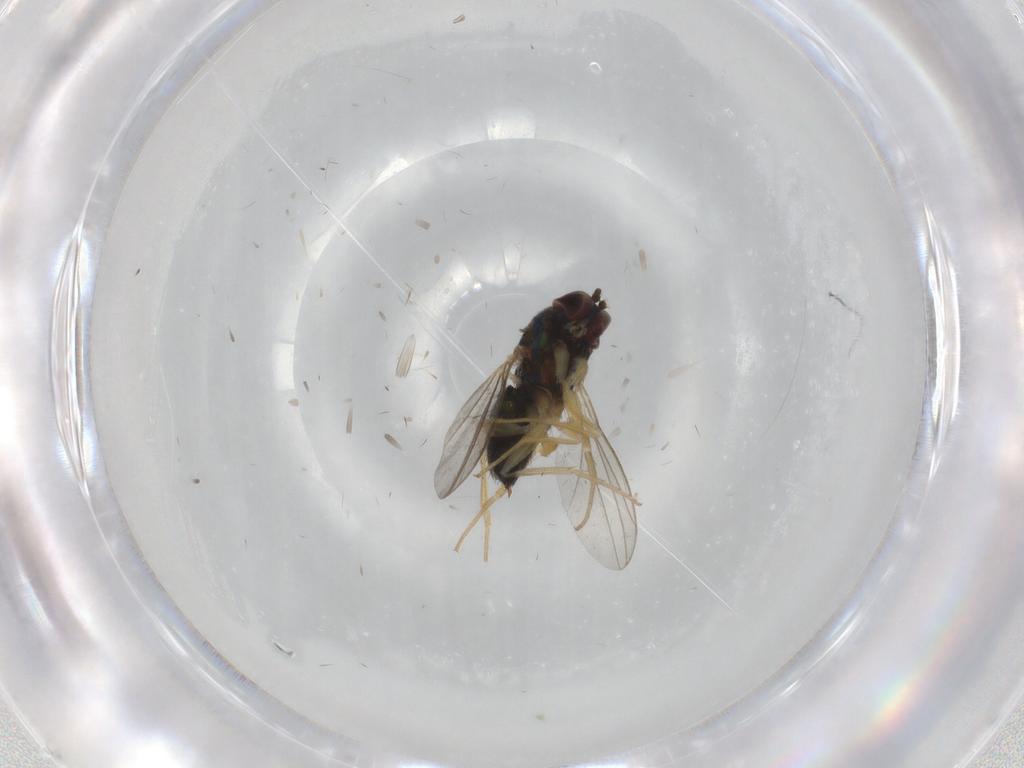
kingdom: Animalia
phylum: Arthropoda
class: Insecta
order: Diptera
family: Dolichopodidae
